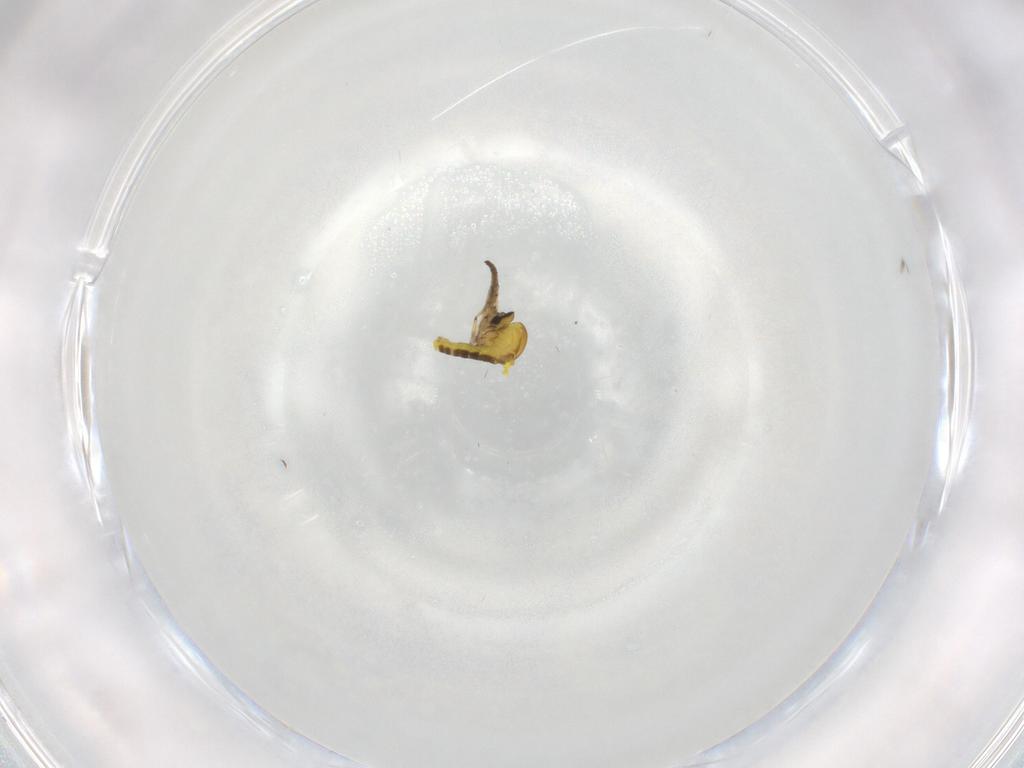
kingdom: Animalia
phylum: Arthropoda
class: Insecta
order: Diptera
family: Ceratopogonidae
